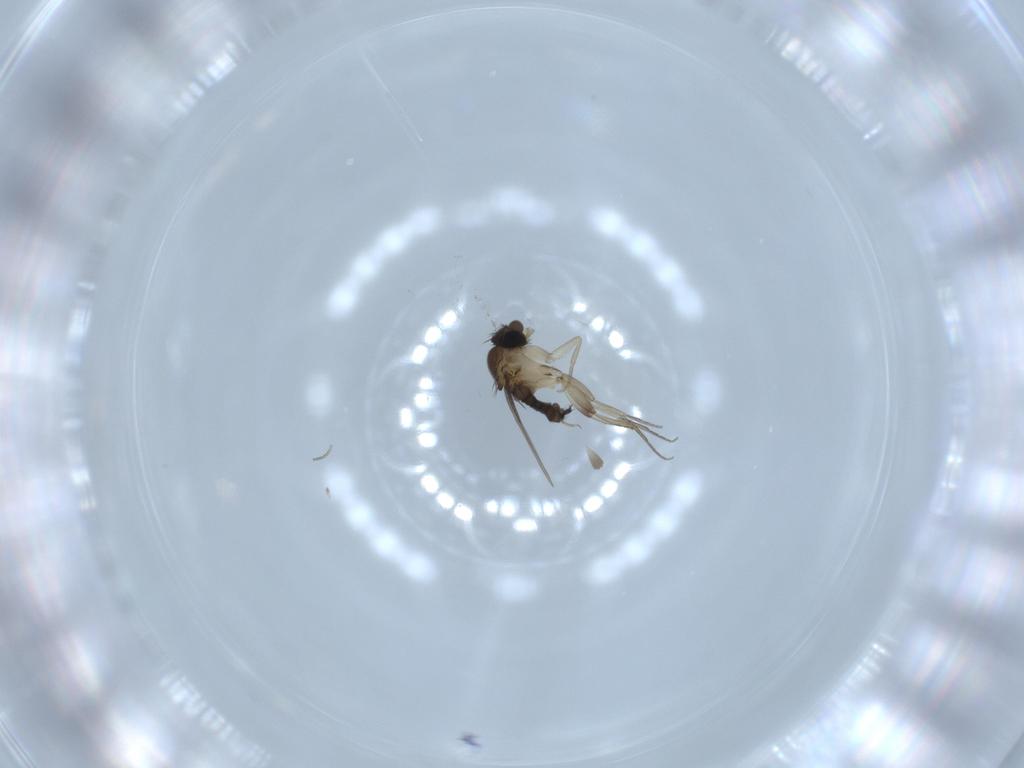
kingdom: Animalia
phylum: Arthropoda
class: Insecta
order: Diptera
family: Phoridae
